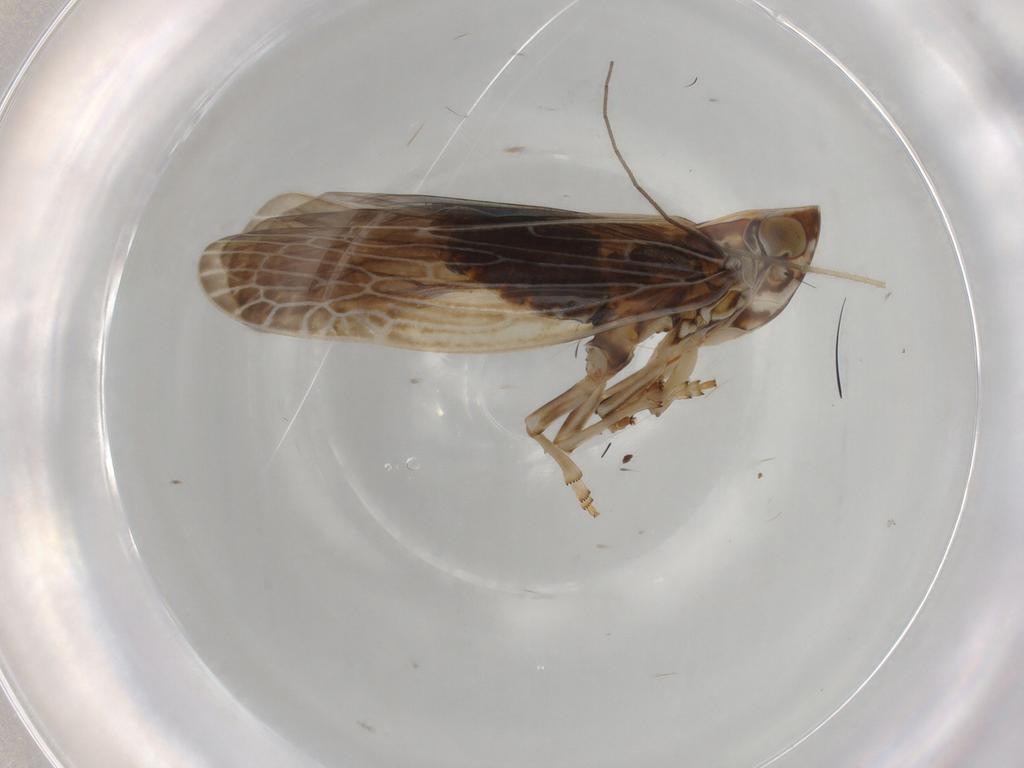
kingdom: Animalia
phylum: Arthropoda
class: Insecta
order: Hemiptera
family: Achilidae
